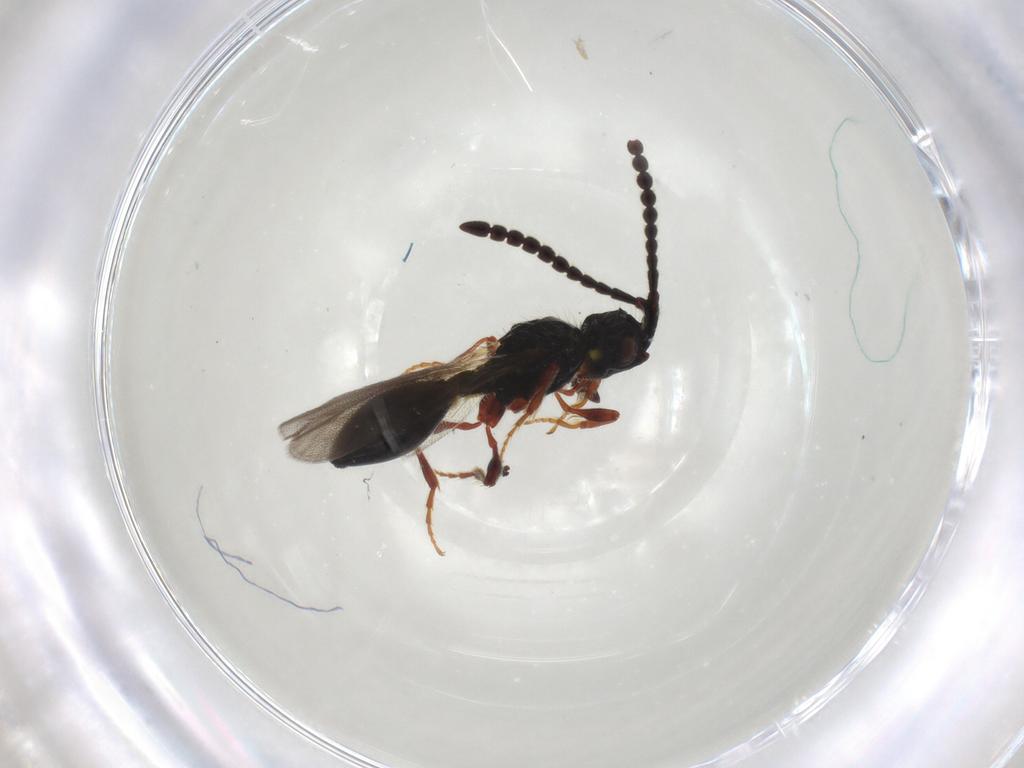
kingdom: Animalia
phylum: Arthropoda
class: Insecta
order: Hymenoptera
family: Diapriidae
